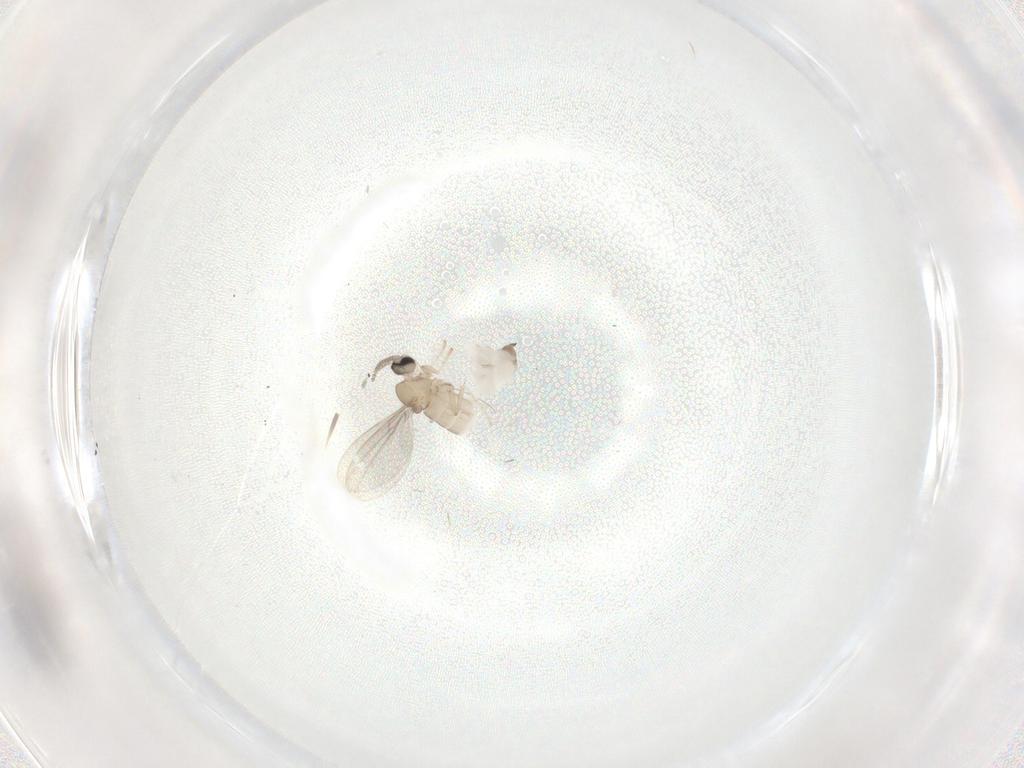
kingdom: Animalia
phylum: Arthropoda
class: Insecta
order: Diptera
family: Cecidomyiidae
